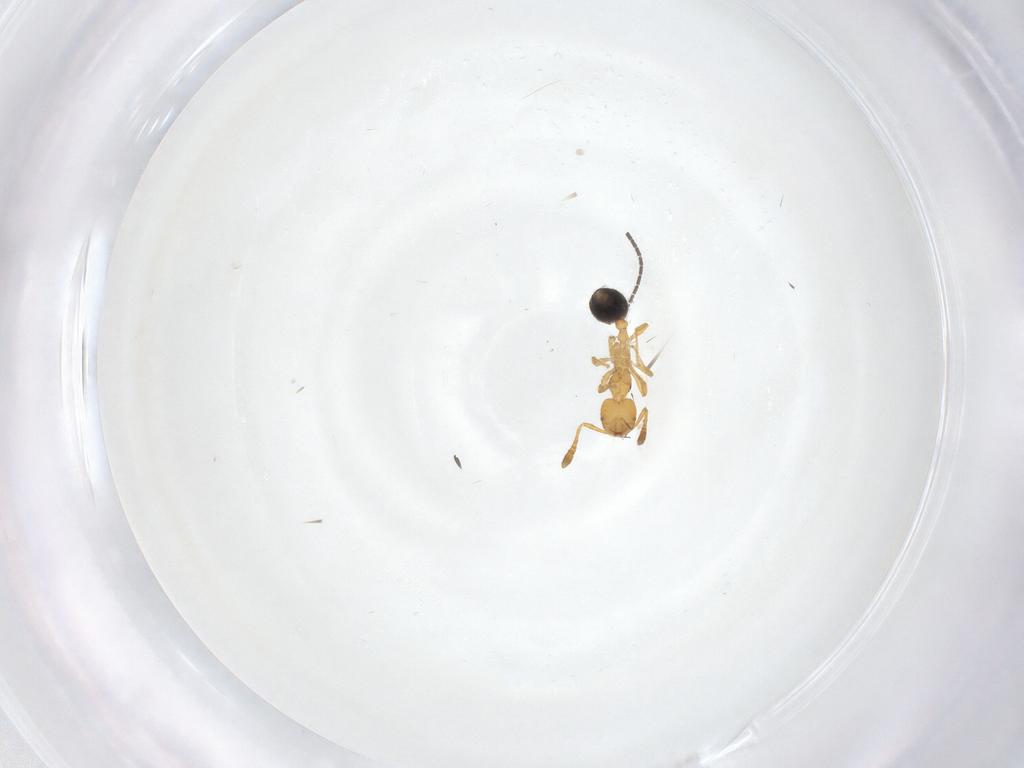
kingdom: Animalia
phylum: Arthropoda
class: Insecta
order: Hymenoptera
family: Formicidae
